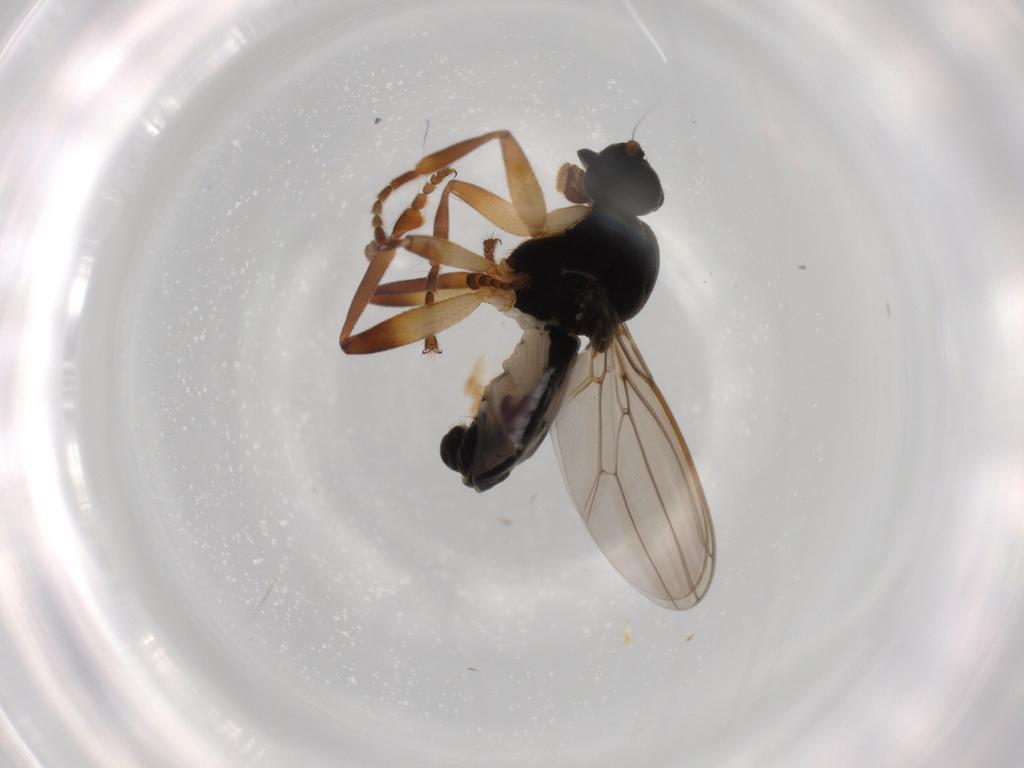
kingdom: Animalia
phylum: Arthropoda
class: Insecta
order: Diptera
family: Sphaeroceridae
